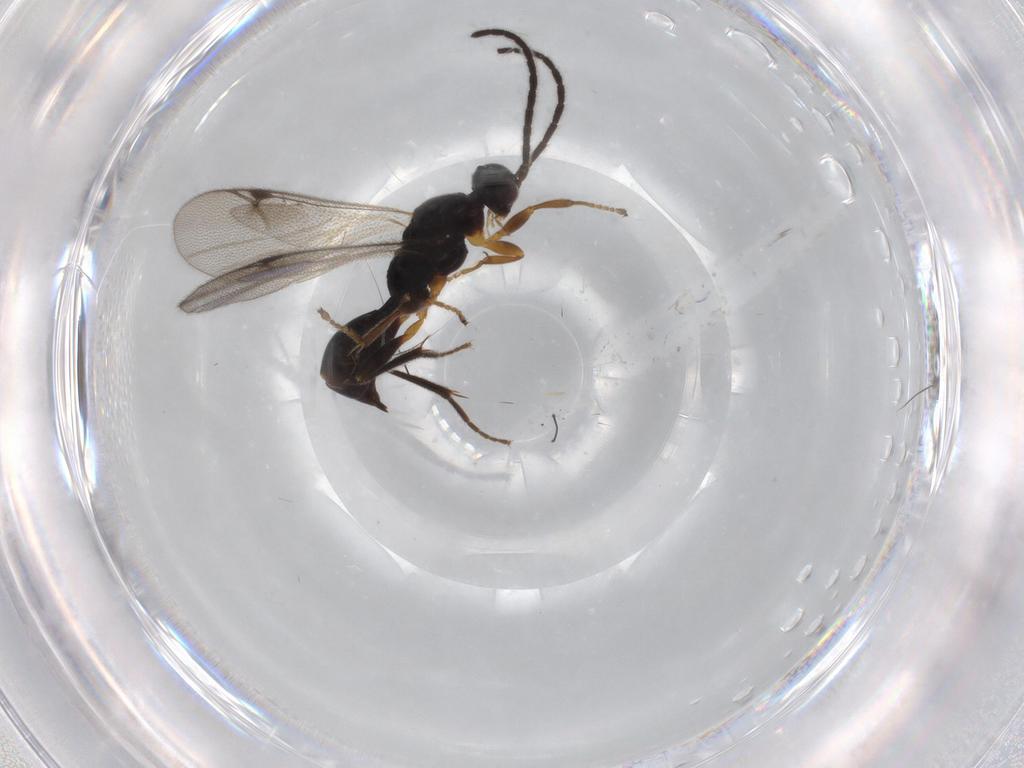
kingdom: Animalia
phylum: Arthropoda
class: Insecta
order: Hymenoptera
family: Proctotrupidae
